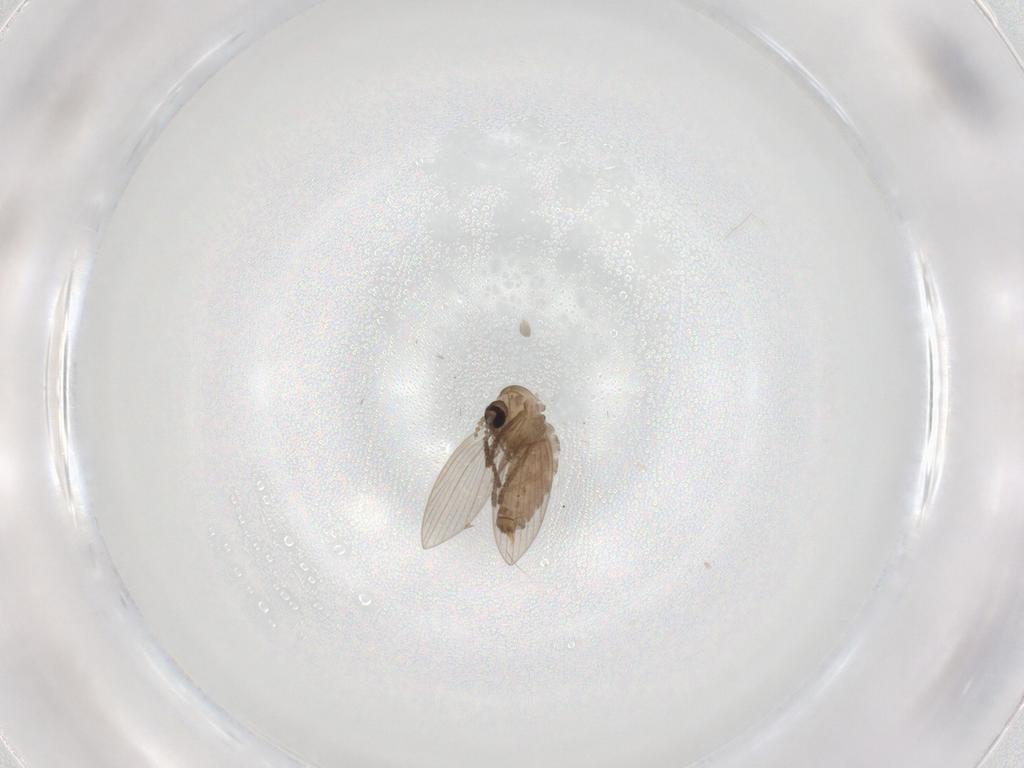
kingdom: Animalia
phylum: Arthropoda
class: Insecta
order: Diptera
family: Psychodidae
